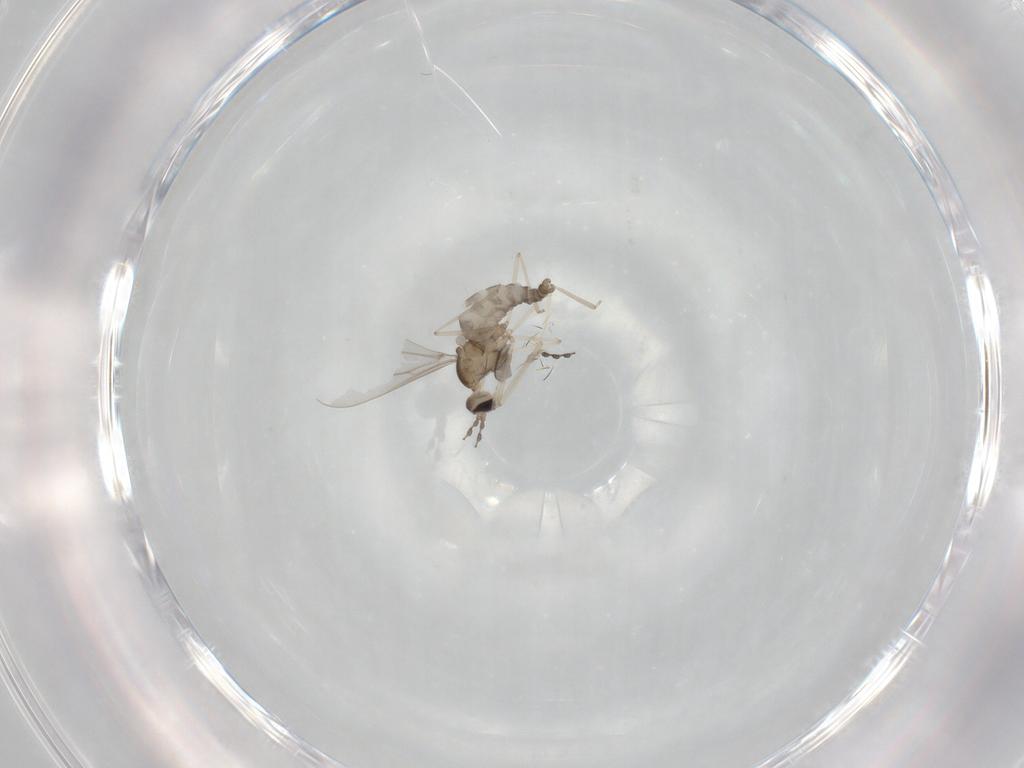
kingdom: Animalia
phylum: Arthropoda
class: Insecta
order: Diptera
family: Cecidomyiidae
